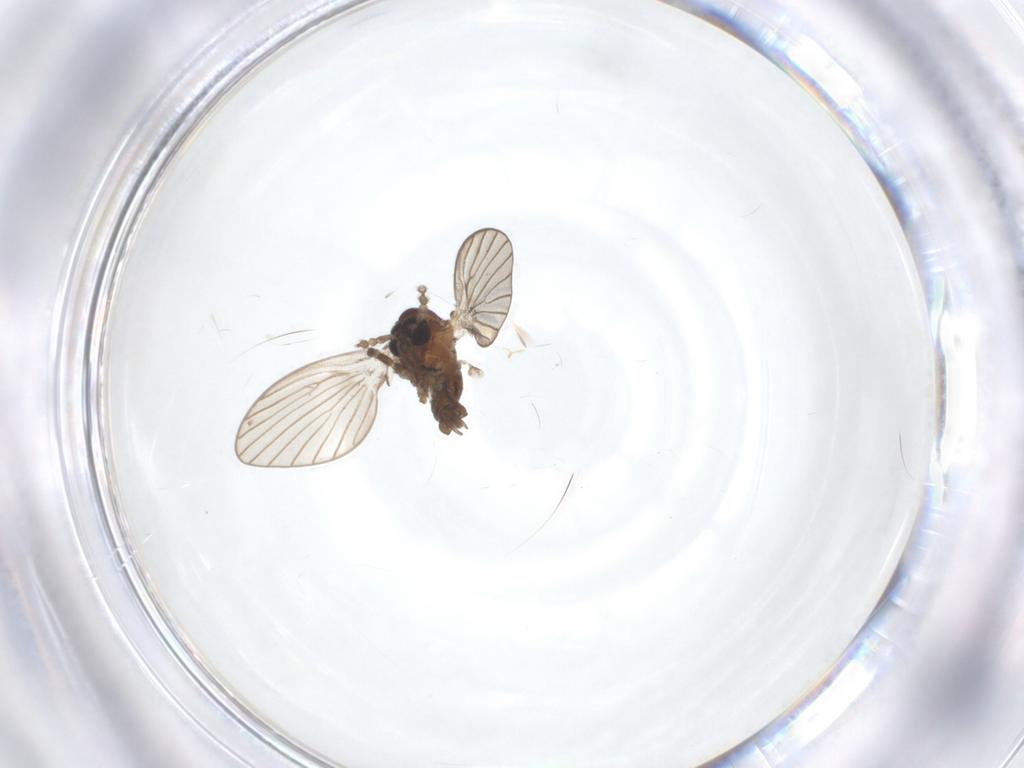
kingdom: Animalia
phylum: Arthropoda
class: Insecta
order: Diptera
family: Psychodidae
